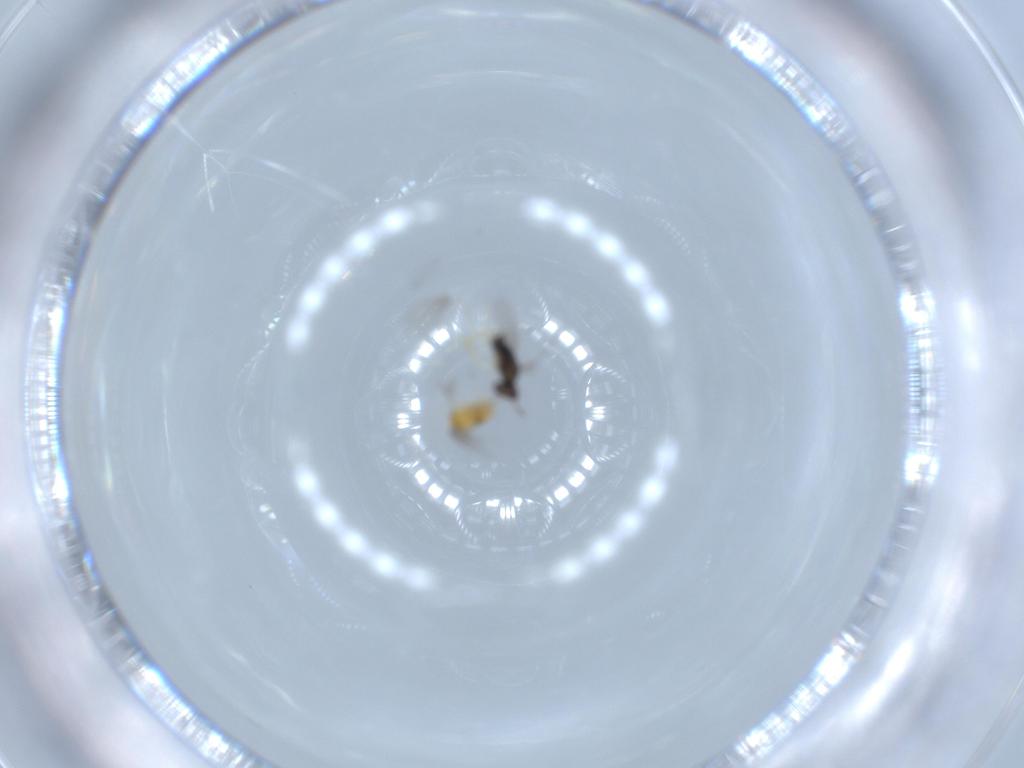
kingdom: Animalia
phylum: Arthropoda
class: Insecta
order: Hymenoptera
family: Trichogrammatidae
